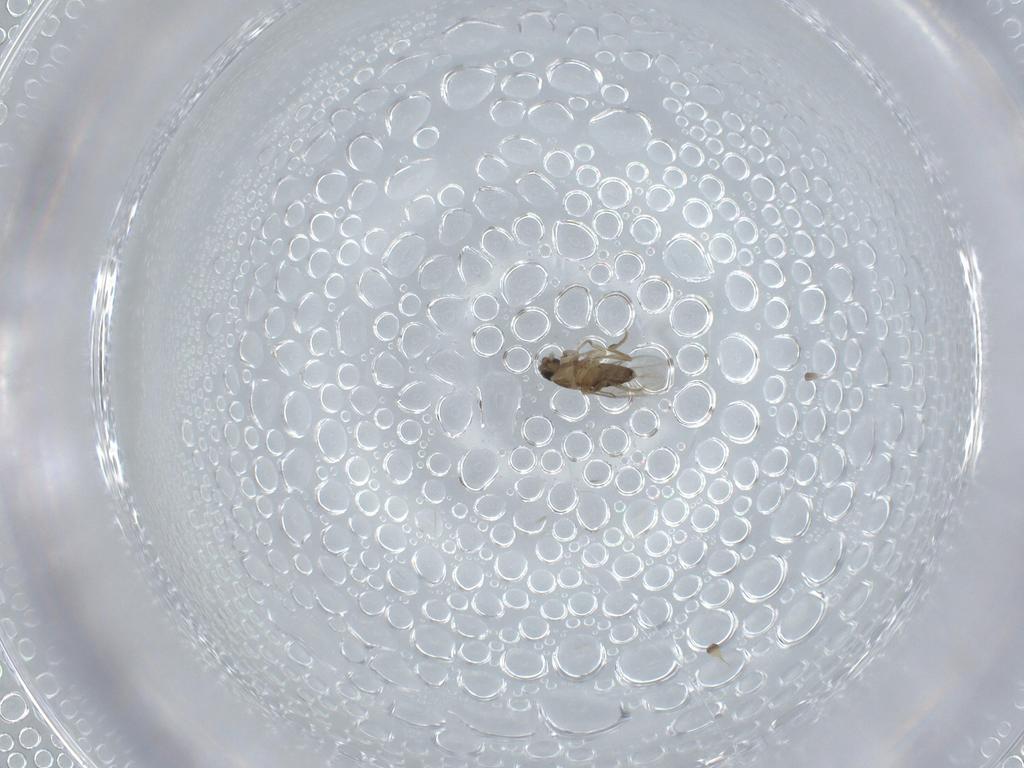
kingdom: Animalia
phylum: Arthropoda
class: Insecta
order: Diptera
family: Phoridae
